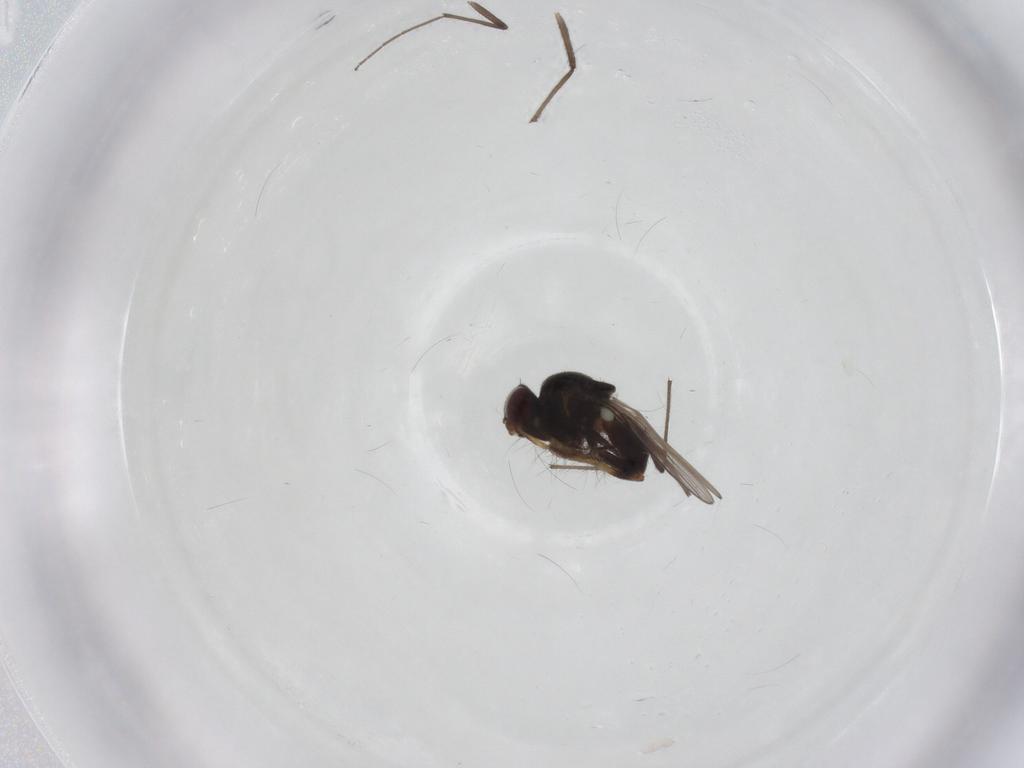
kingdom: Animalia
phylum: Arthropoda
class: Insecta
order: Diptera
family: Chloropidae
